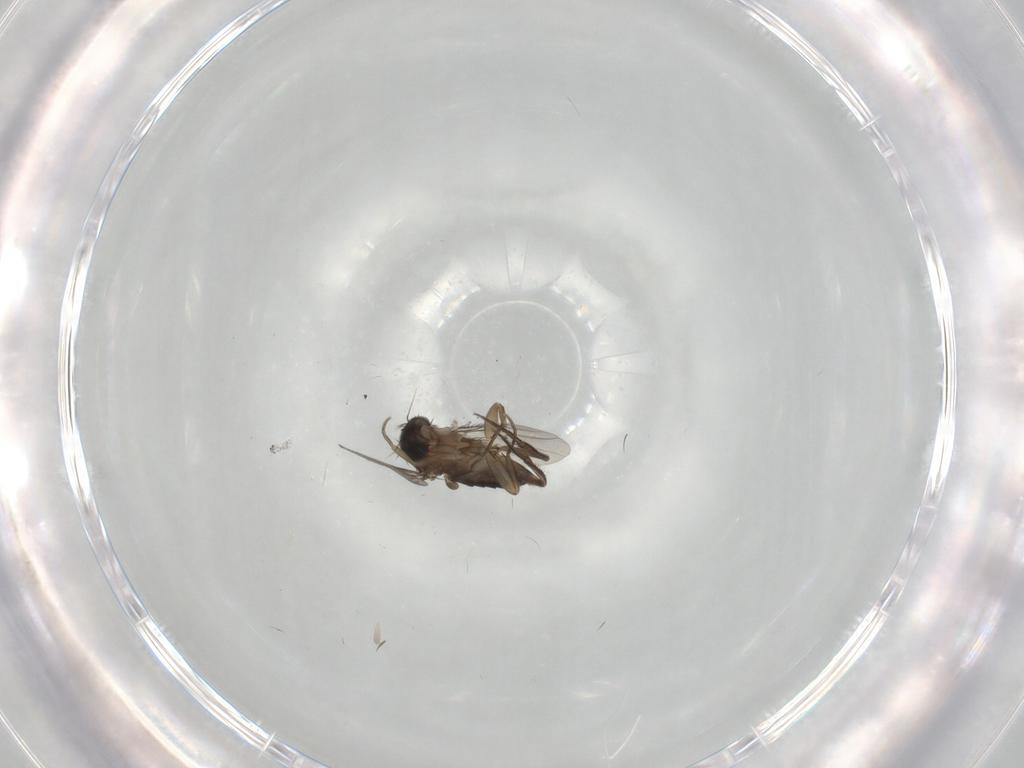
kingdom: Animalia
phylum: Arthropoda
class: Insecta
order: Diptera
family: Phoridae
